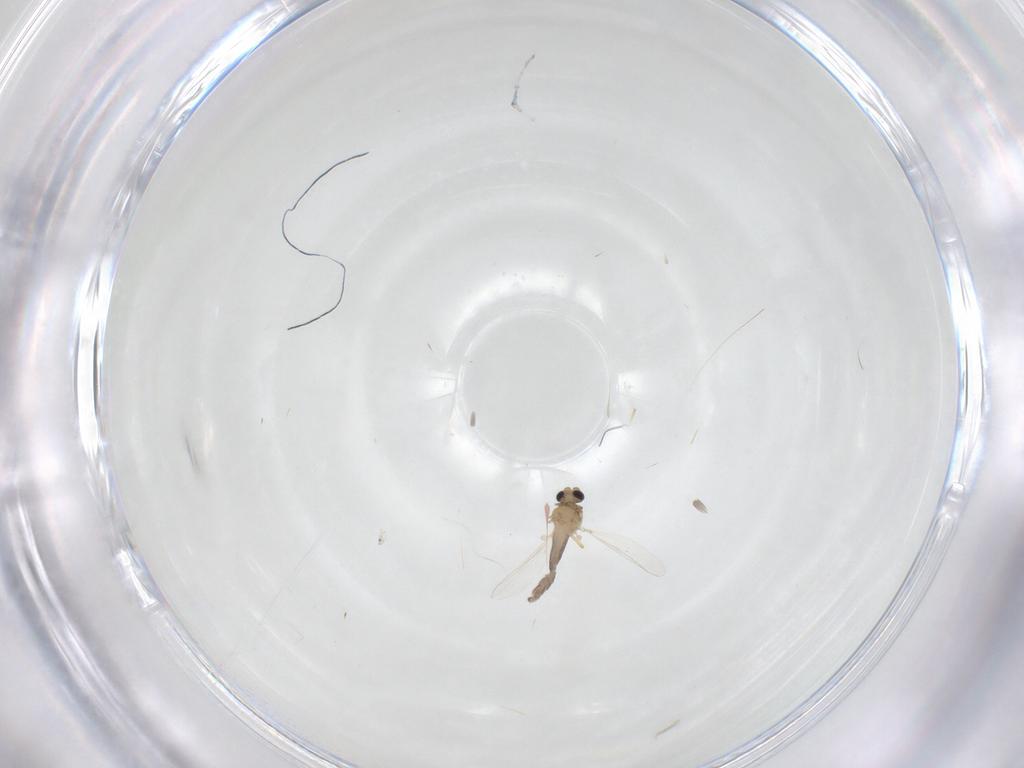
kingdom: Animalia
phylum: Arthropoda
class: Insecta
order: Diptera
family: Chironomidae
